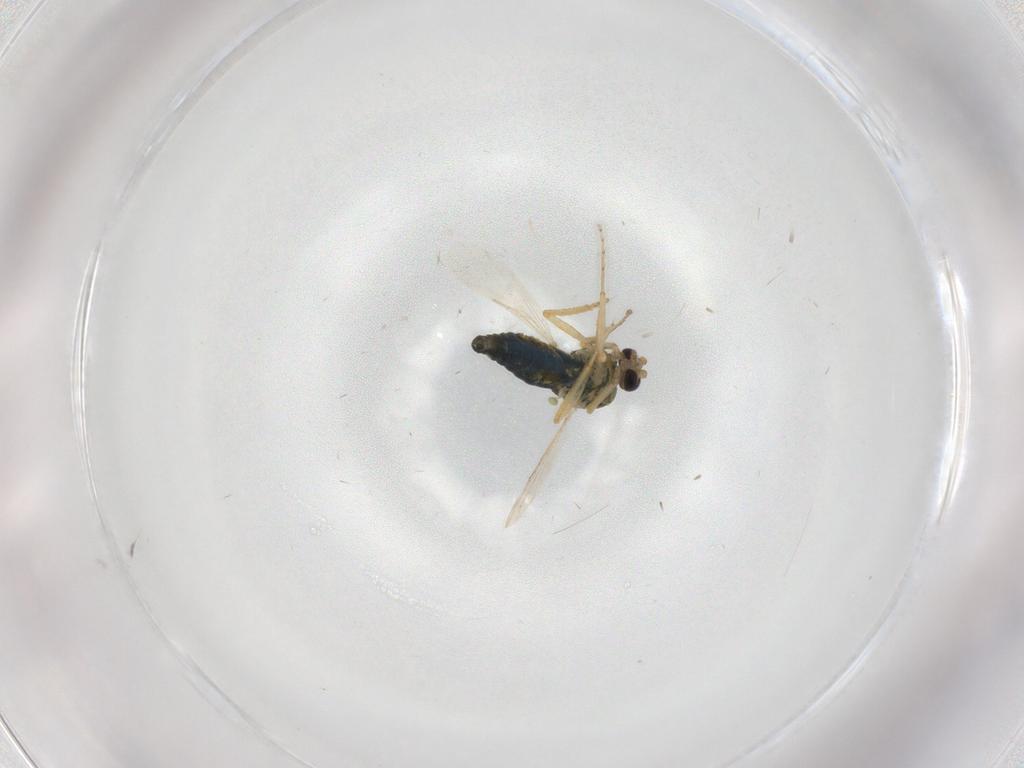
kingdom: Animalia
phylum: Arthropoda
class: Insecta
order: Diptera
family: Ceratopogonidae
